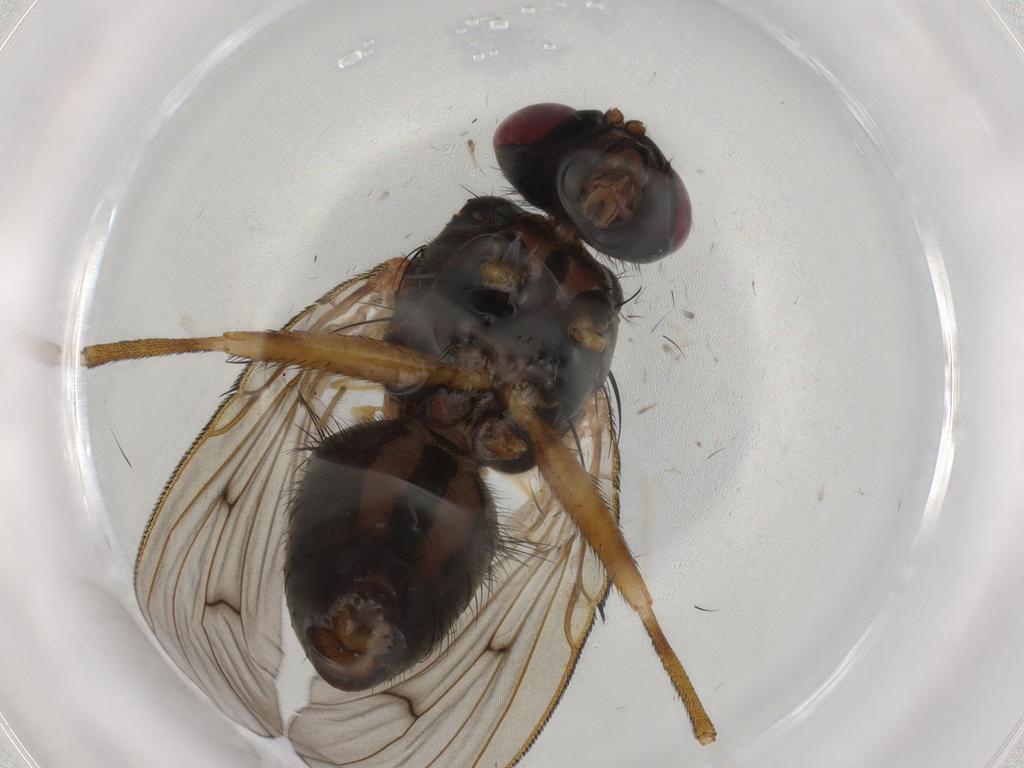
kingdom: Animalia
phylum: Arthropoda
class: Insecta
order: Diptera
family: Muscidae
